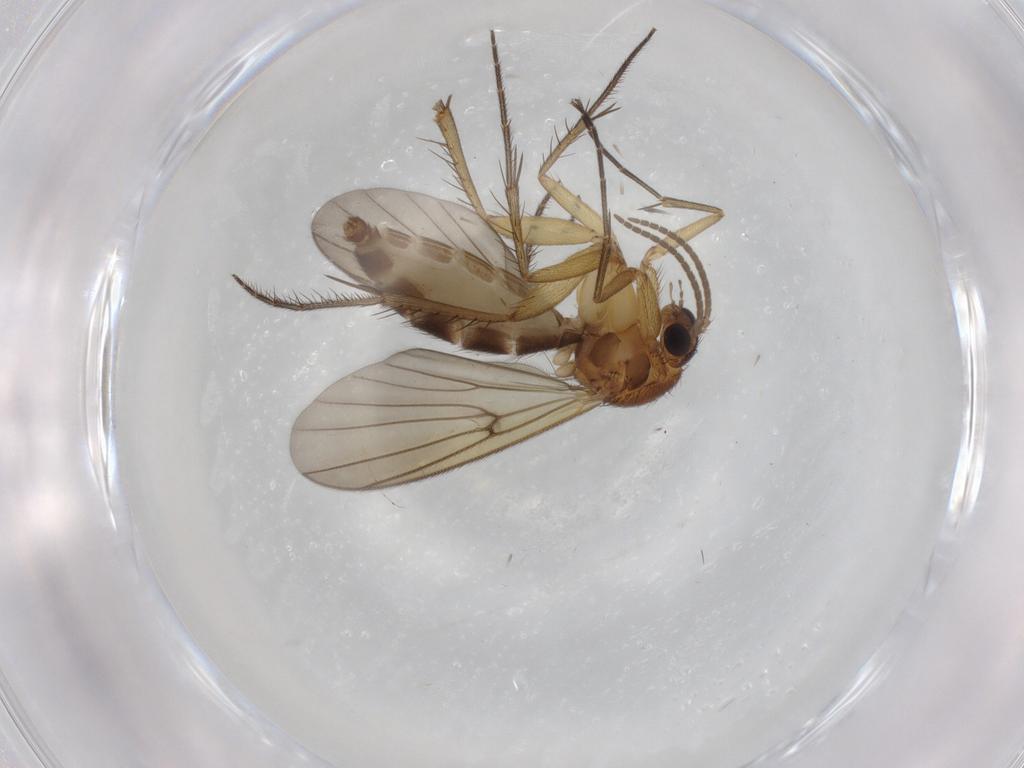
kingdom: Animalia
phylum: Arthropoda
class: Insecta
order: Diptera
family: Mycetophilidae
